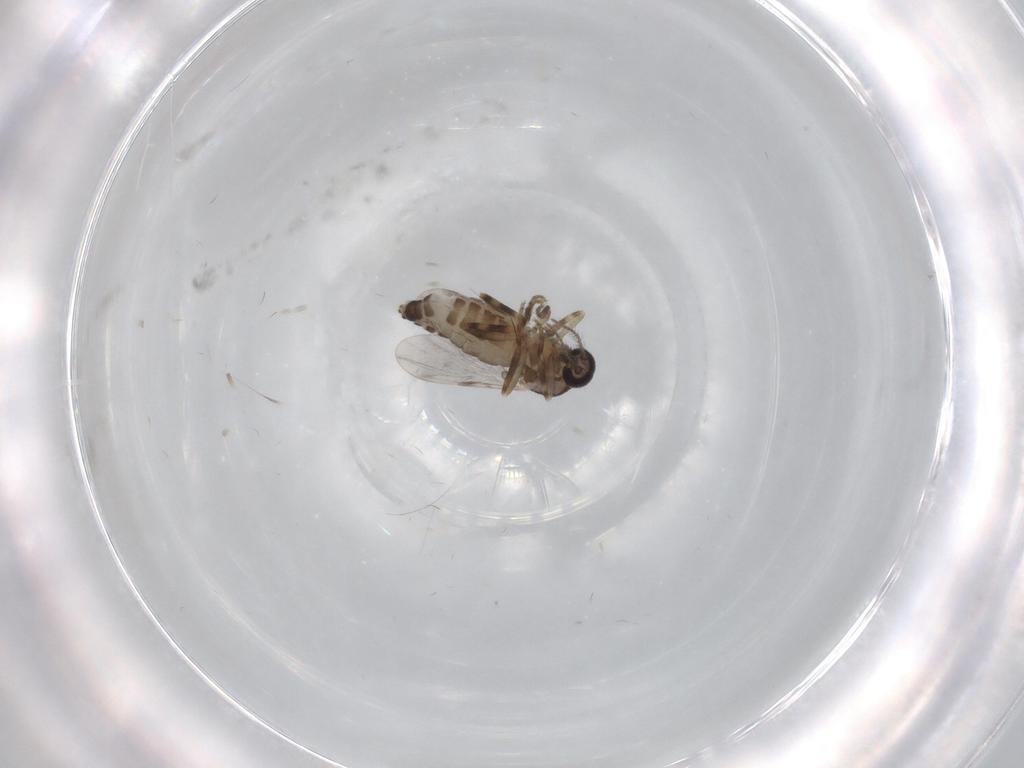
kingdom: Animalia
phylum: Arthropoda
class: Insecta
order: Diptera
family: Ceratopogonidae
